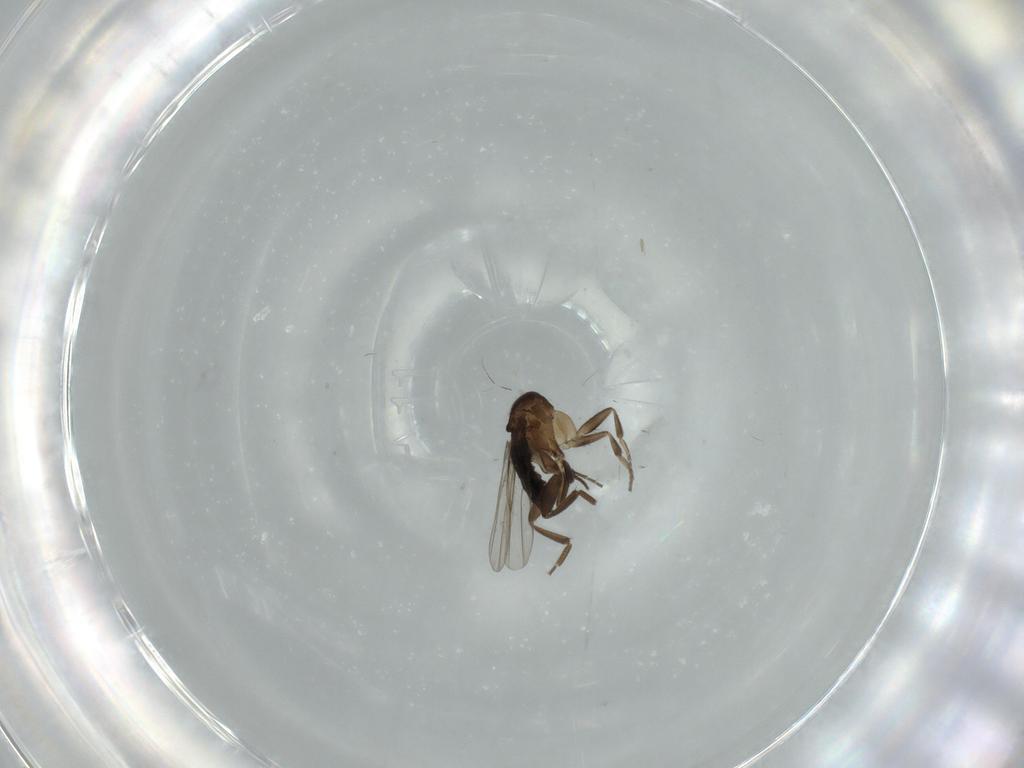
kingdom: Animalia
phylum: Arthropoda
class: Insecta
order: Diptera
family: Phoridae
